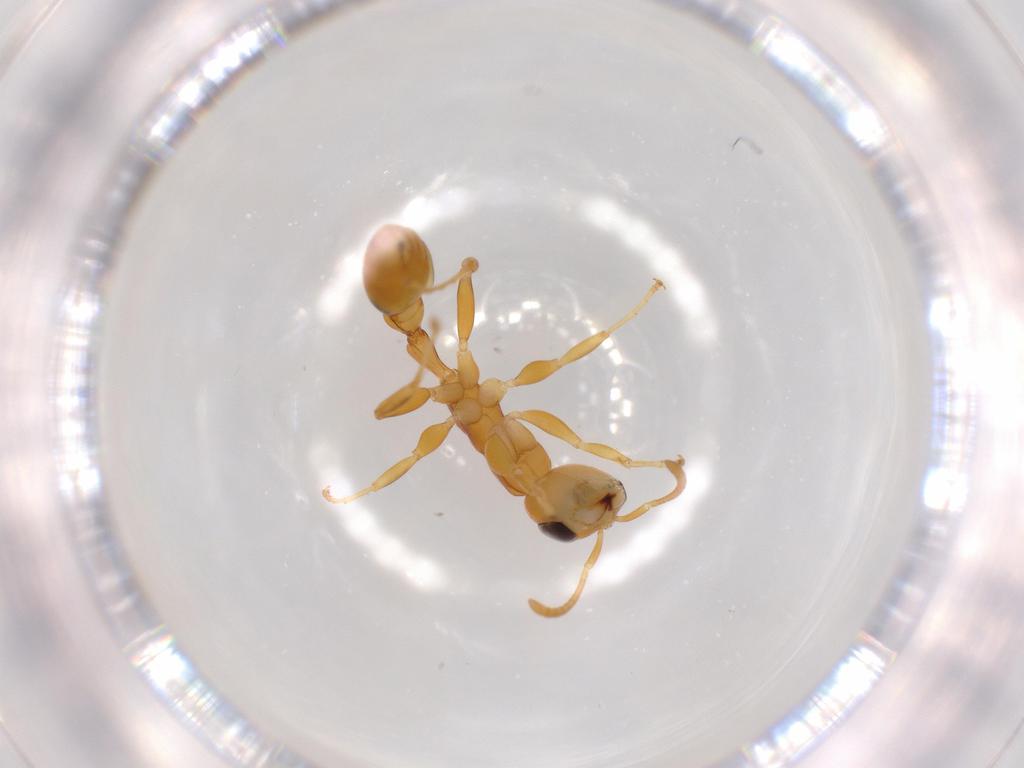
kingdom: Animalia
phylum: Arthropoda
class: Insecta
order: Hymenoptera
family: Formicidae
